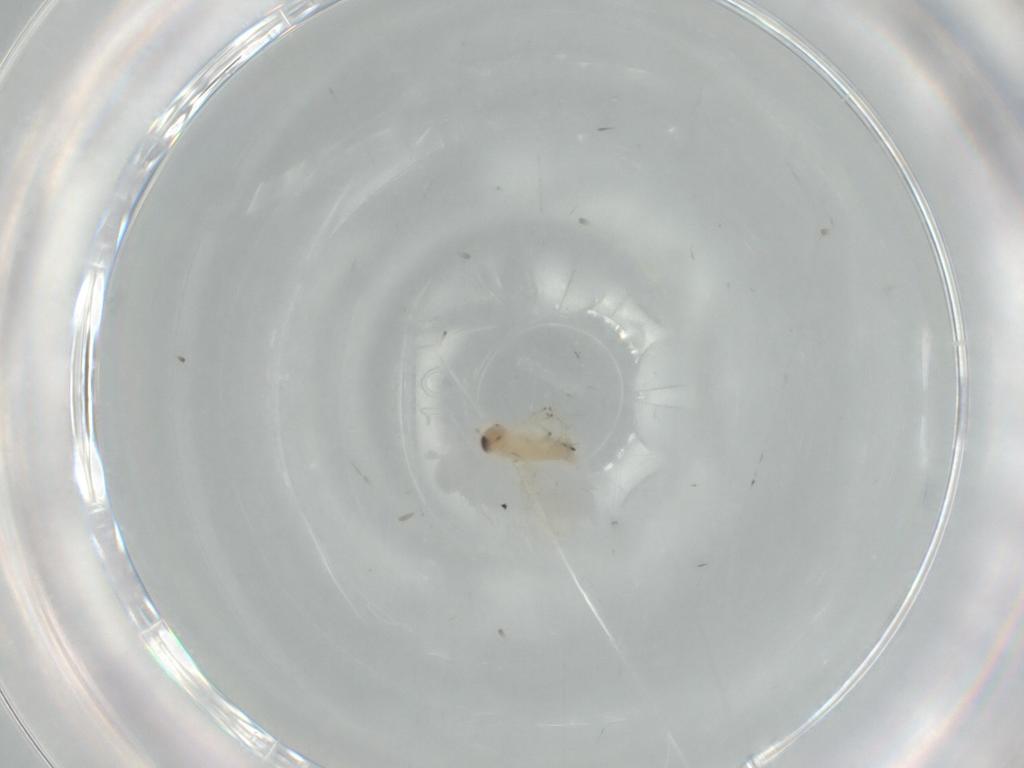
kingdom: Animalia
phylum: Arthropoda
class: Insecta
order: Hymenoptera
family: Aphelinidae
